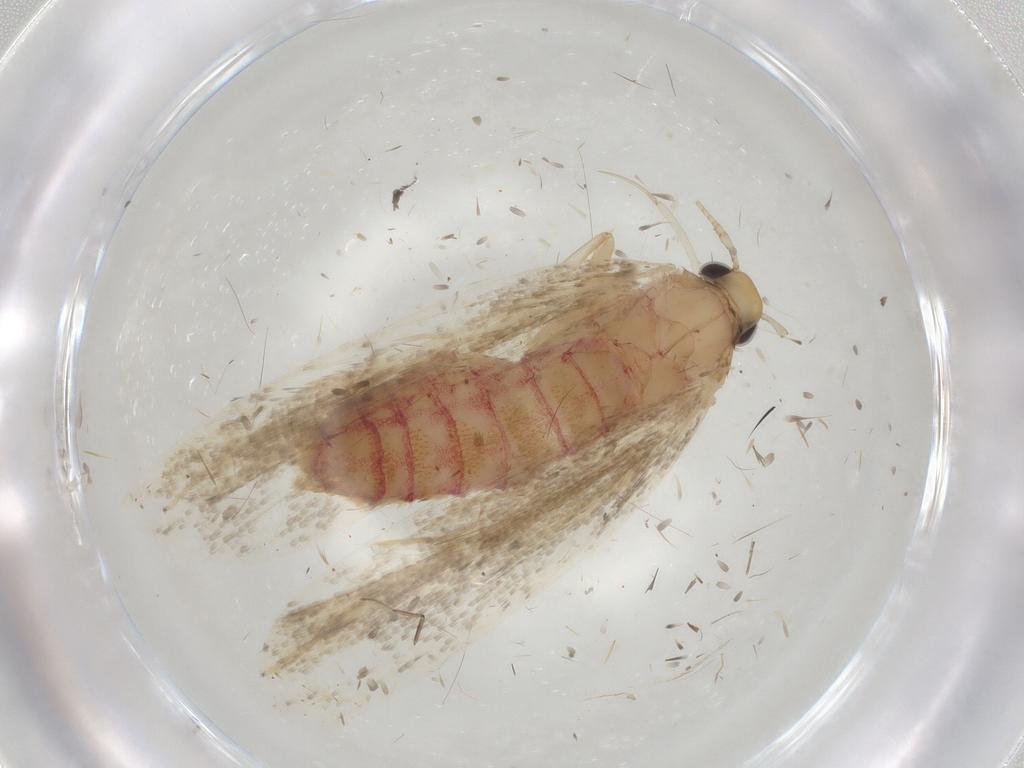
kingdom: Animalia
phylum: Arthropoda
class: Insecta
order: Lepidoptera
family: Lecithoceridae
